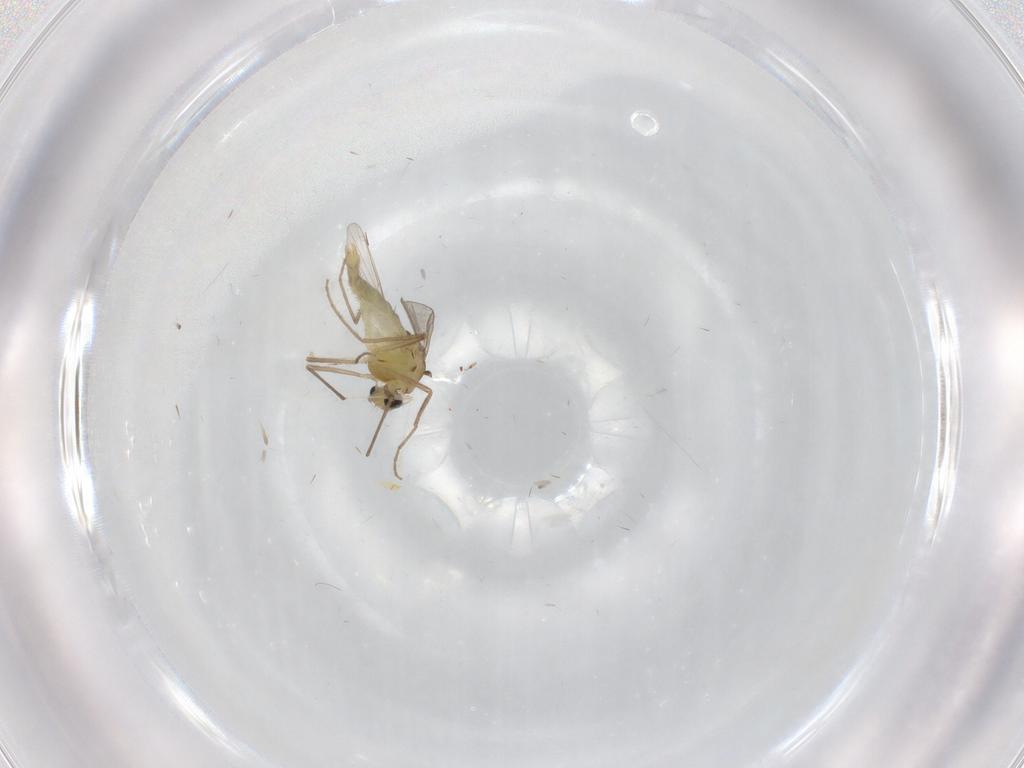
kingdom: Animalia
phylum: Arthropoda
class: Insecta
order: Diptera
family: Chironomidae
